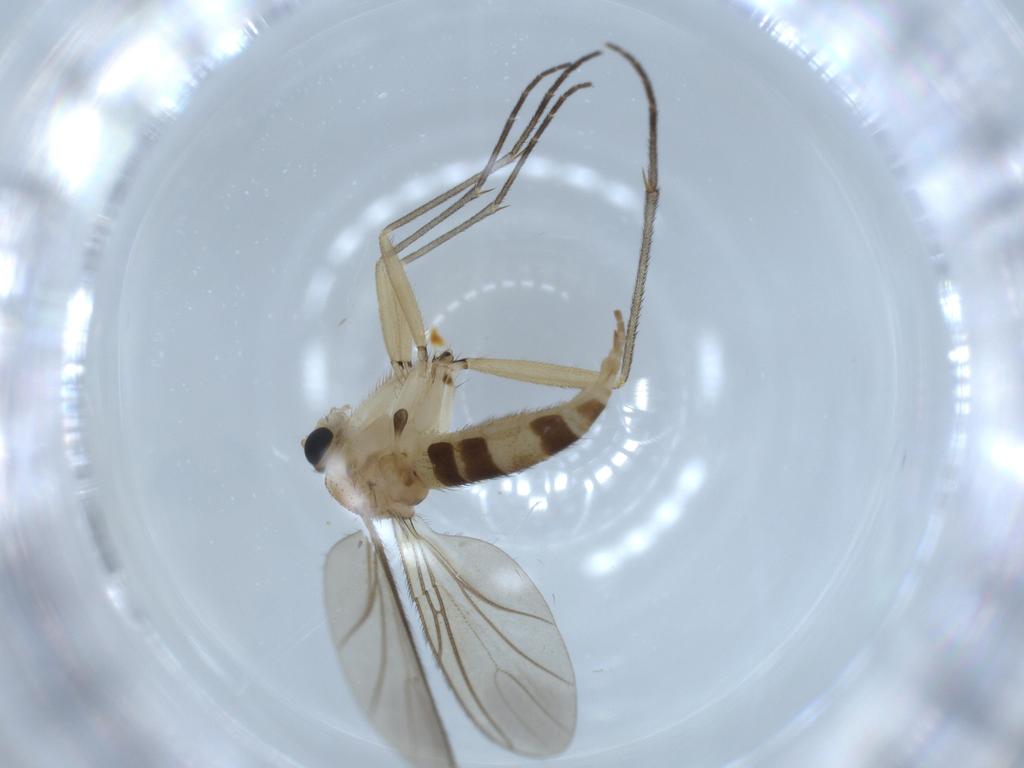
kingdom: Animalia
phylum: Arthropoda
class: Insecta
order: Diptera
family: Sciaridae
